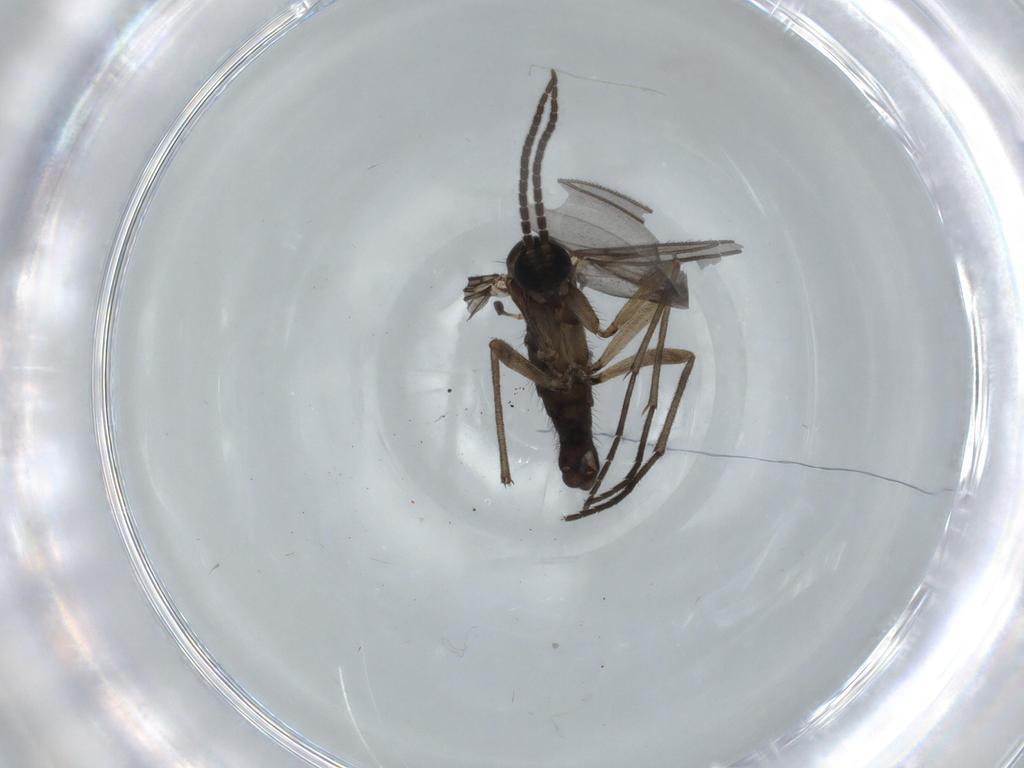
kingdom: Animalia
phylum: Arthropoda
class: Insecta
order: Diptera
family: Sciaridae
